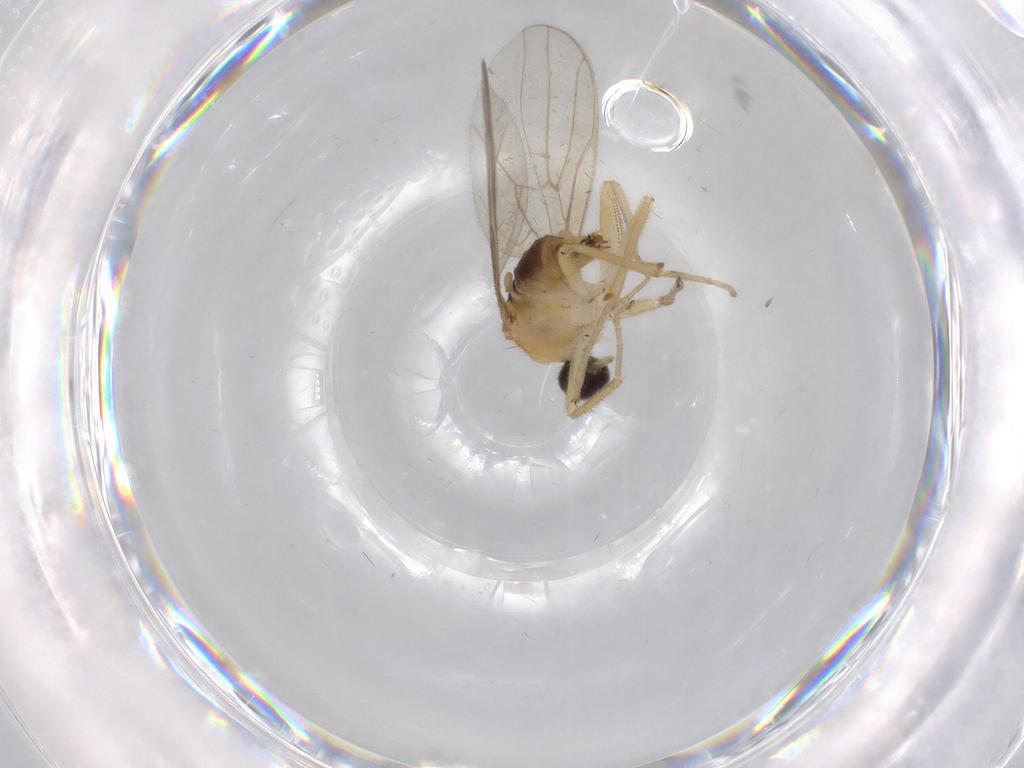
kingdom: Animalia
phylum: Arthropoda
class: Insecta
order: Diptera
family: Hybotidae
